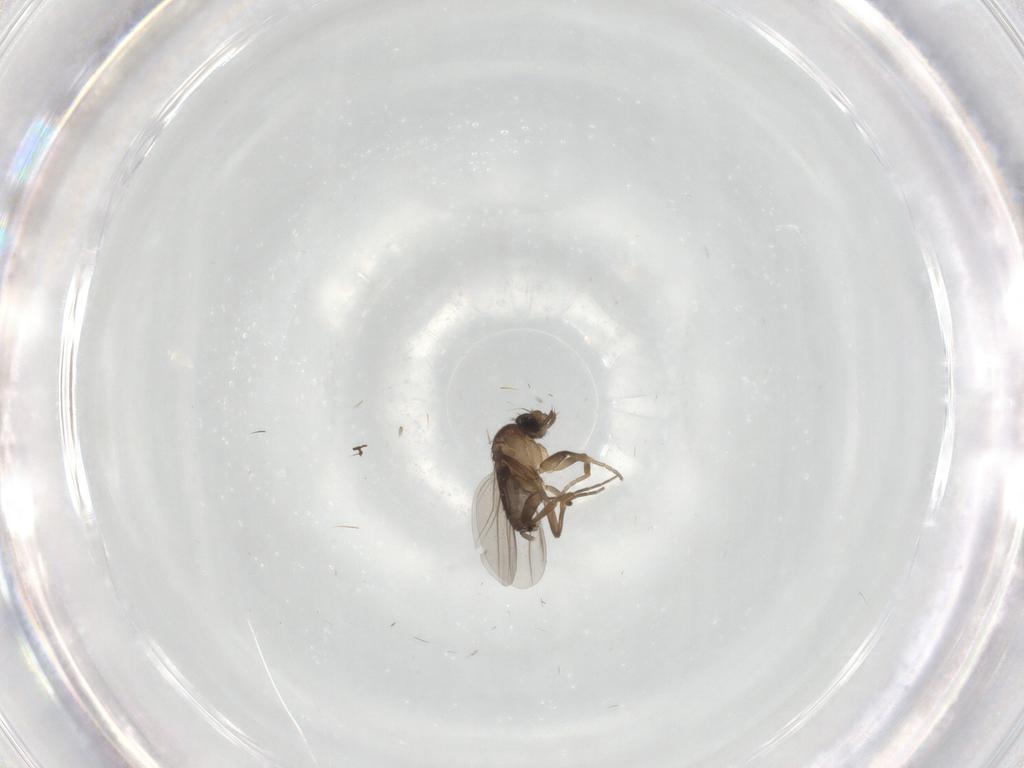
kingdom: Animalia
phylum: Arthropoda
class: Insecta
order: Diptera
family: Phoridae
